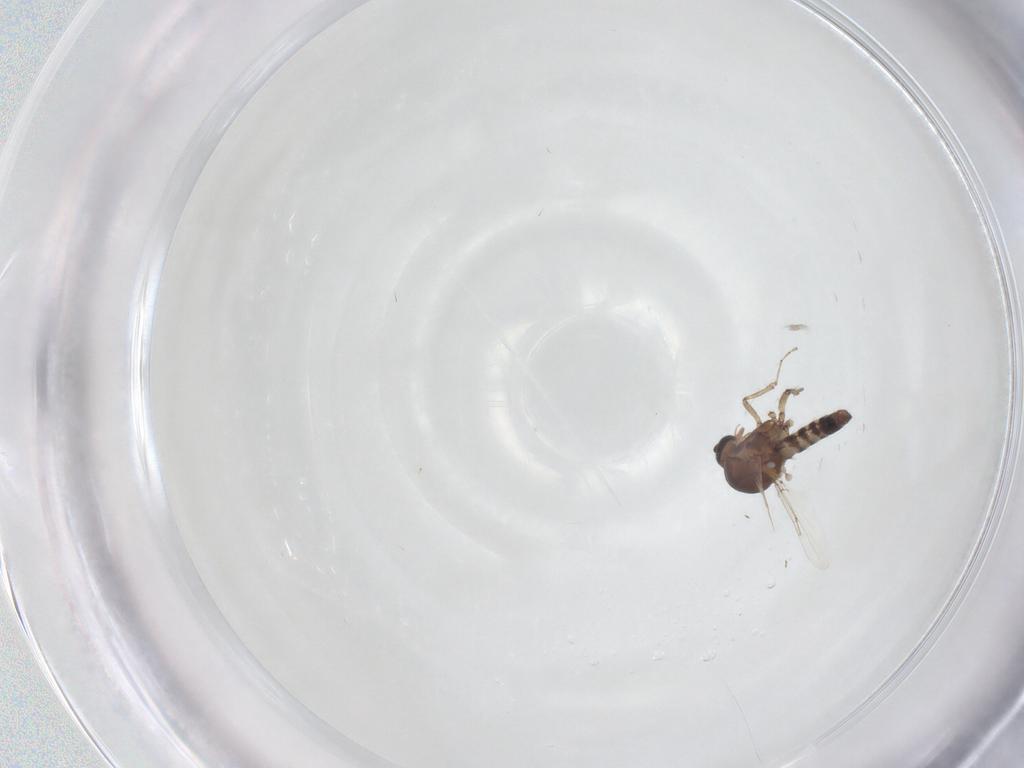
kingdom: Animalia
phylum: Arthropoda
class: Insecta
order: Diptera
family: Ceratopogonidae
